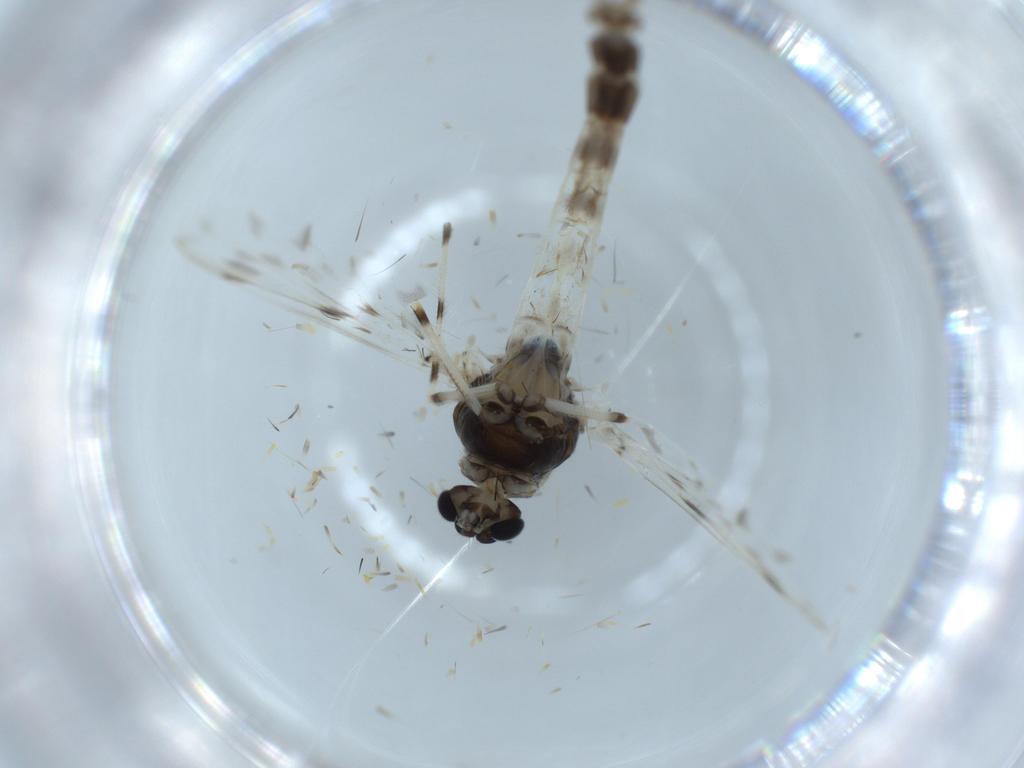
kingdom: Animalia
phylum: Arthropoda
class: Insecta
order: Diptera
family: Chironomidae
